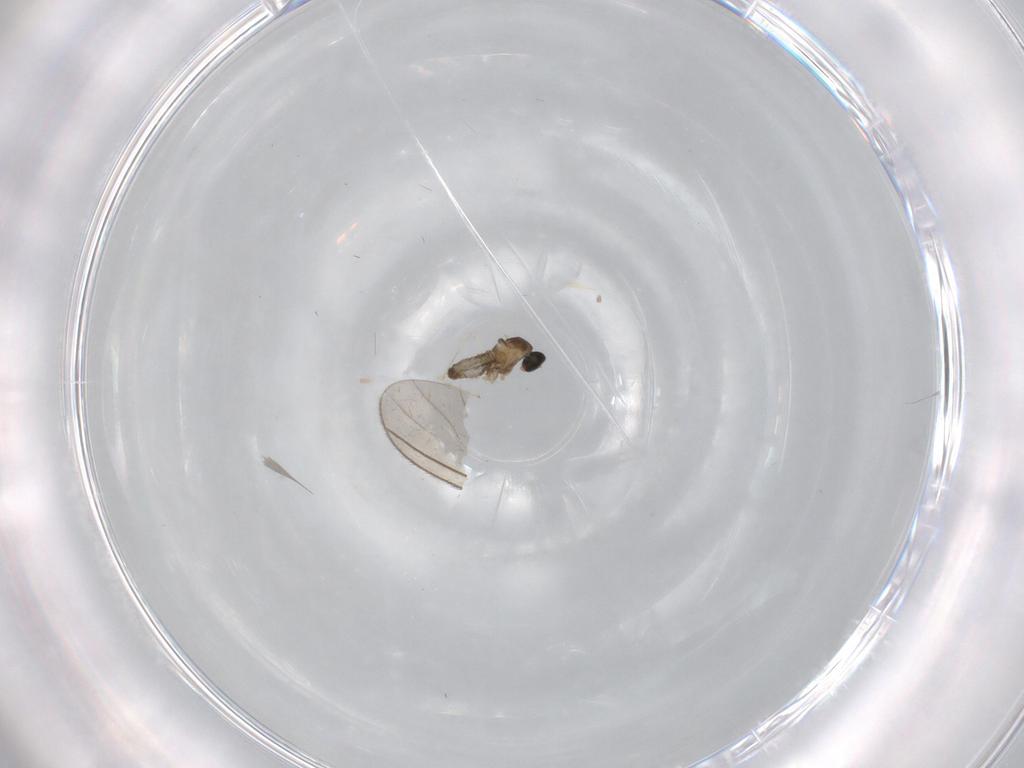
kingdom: Animalia
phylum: Arthropoda
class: Insecta
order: Diptera
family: Cecidomyiidae
